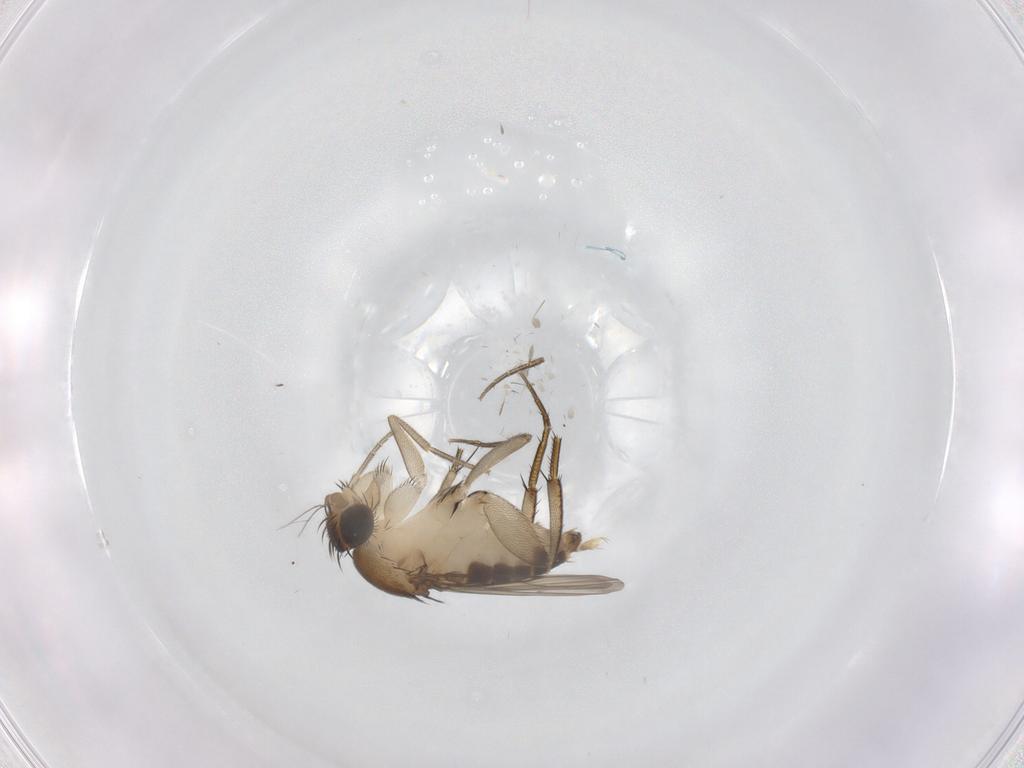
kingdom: Animalia
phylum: Arthropoda
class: Insecta
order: Diptera
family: Phoridae
